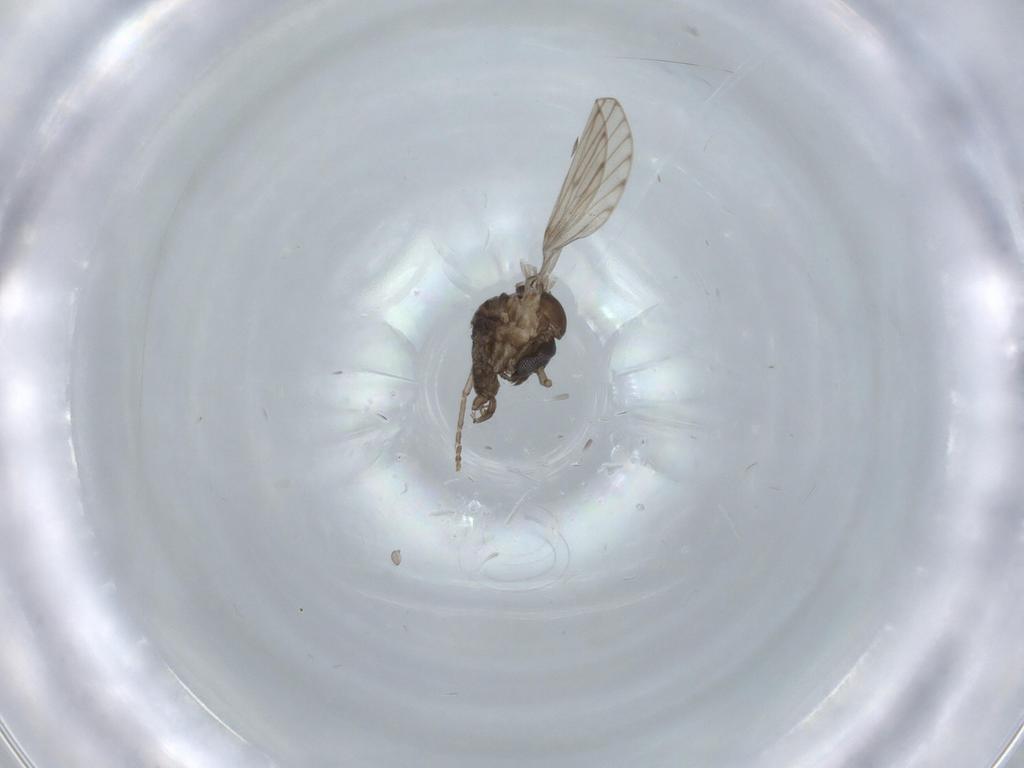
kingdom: Animalia
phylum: Arthropoda
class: Insecta
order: Diptera
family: Psychodidae
